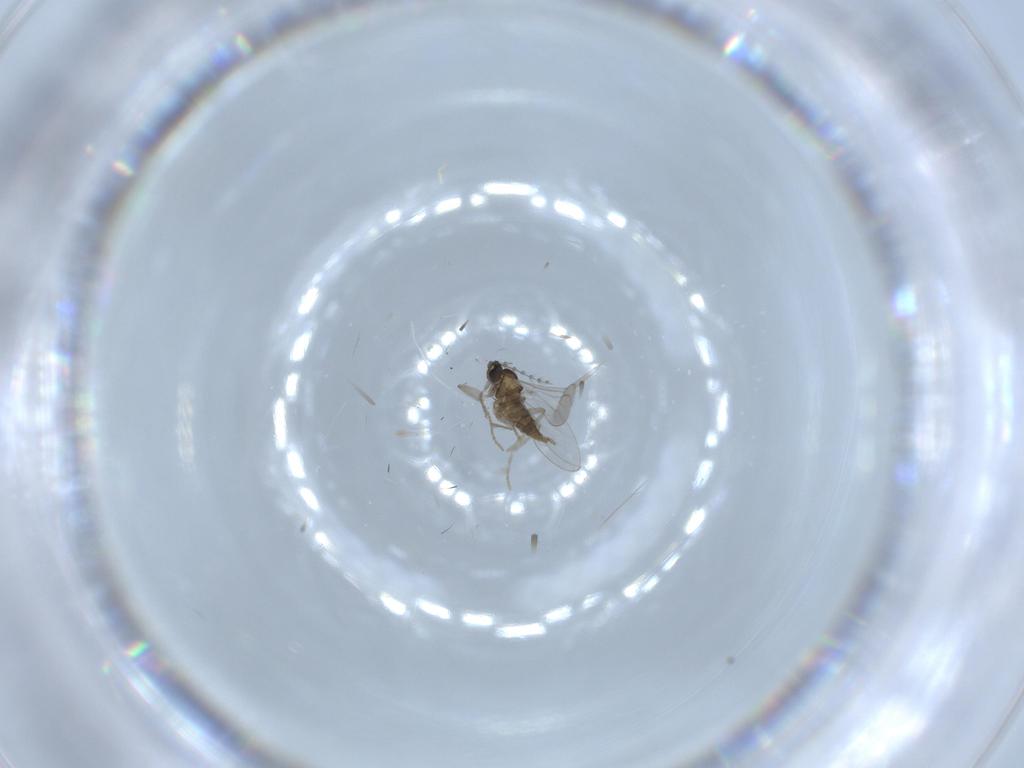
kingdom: Animalia
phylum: Arthropoda
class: Insecta
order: Diptera
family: Cecidomyiidae
